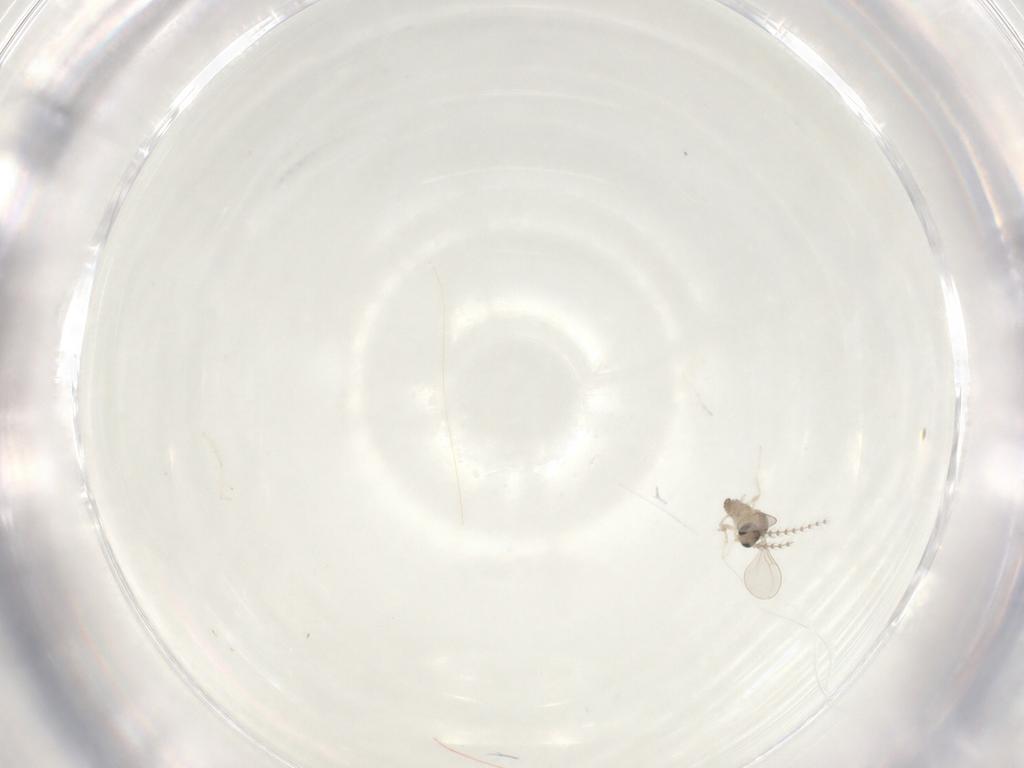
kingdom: Animalia
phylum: Arthropoda
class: Insecta
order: Diptera
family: Cecidomyiidae
